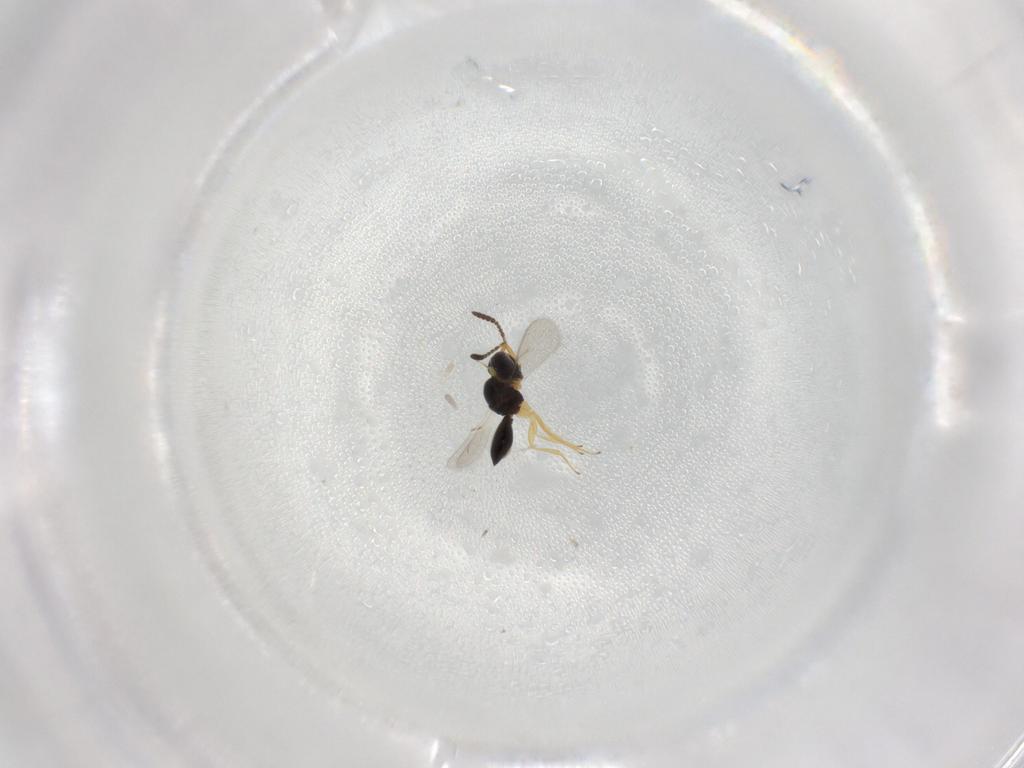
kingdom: Animalia
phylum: Arthropoda
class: Insecta
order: Hymenoptera
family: Scelionidae
